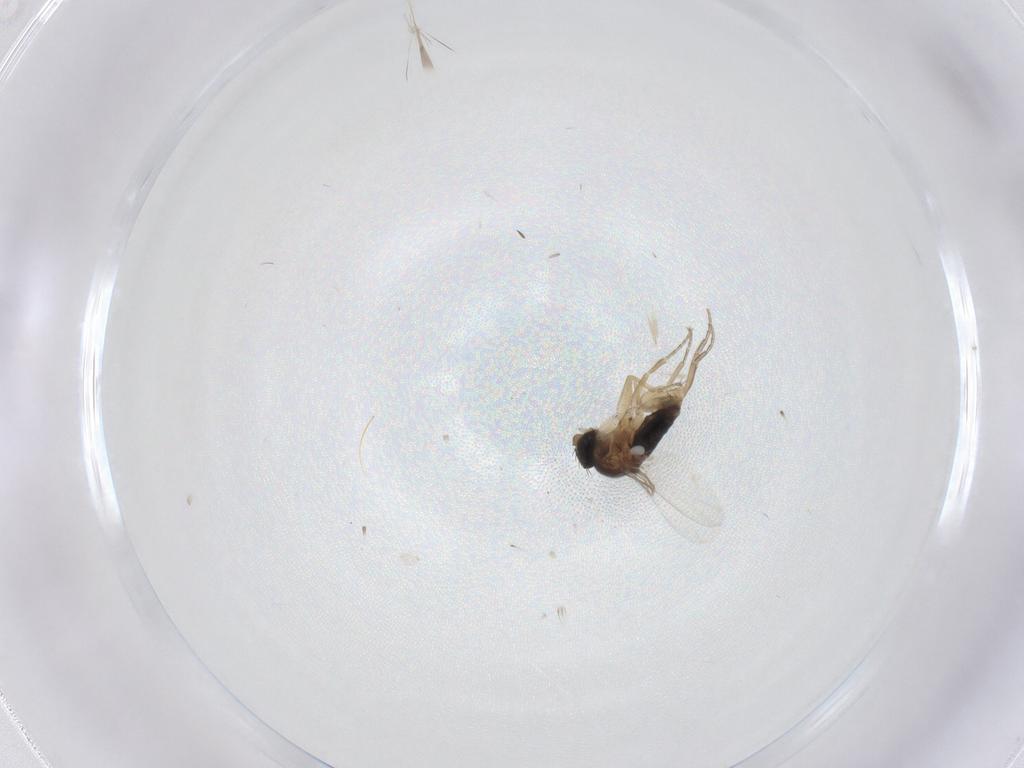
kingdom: Animalia
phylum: Arthropoda
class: Insecta
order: Diptera
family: Phoridae
